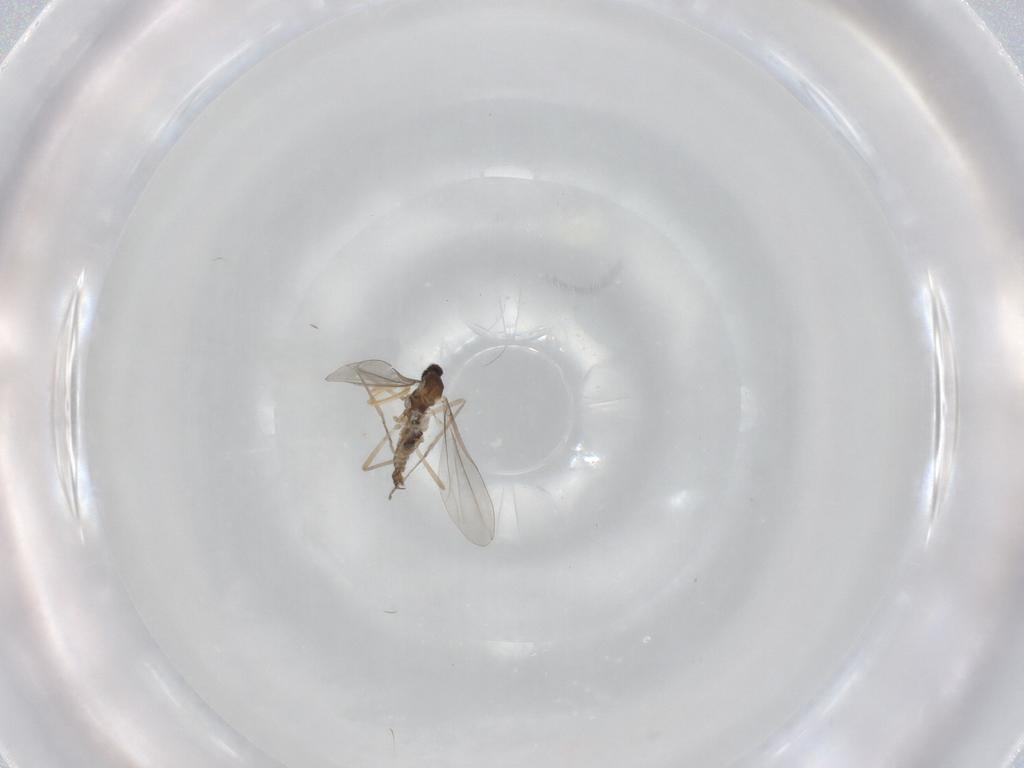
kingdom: Animalia
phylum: Arthropoda
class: Insecta
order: Diptera
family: Cecidomyiidae
